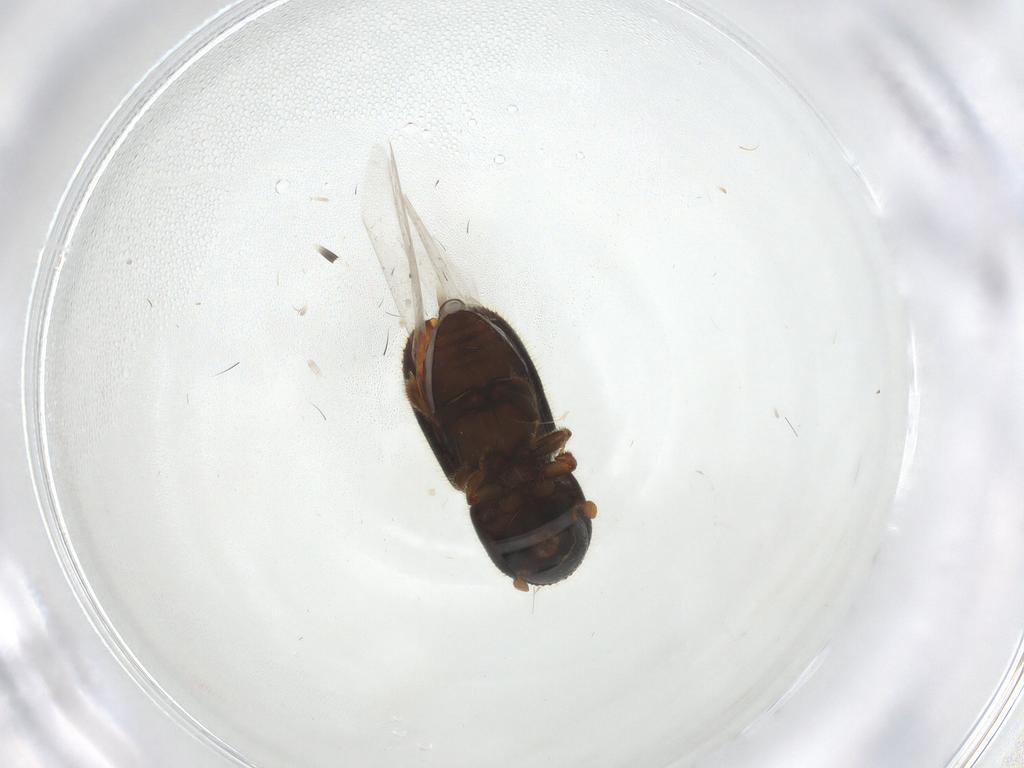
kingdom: Animalia
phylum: Arthropoda
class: Insecta
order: Coleoptera
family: Curculionidae
